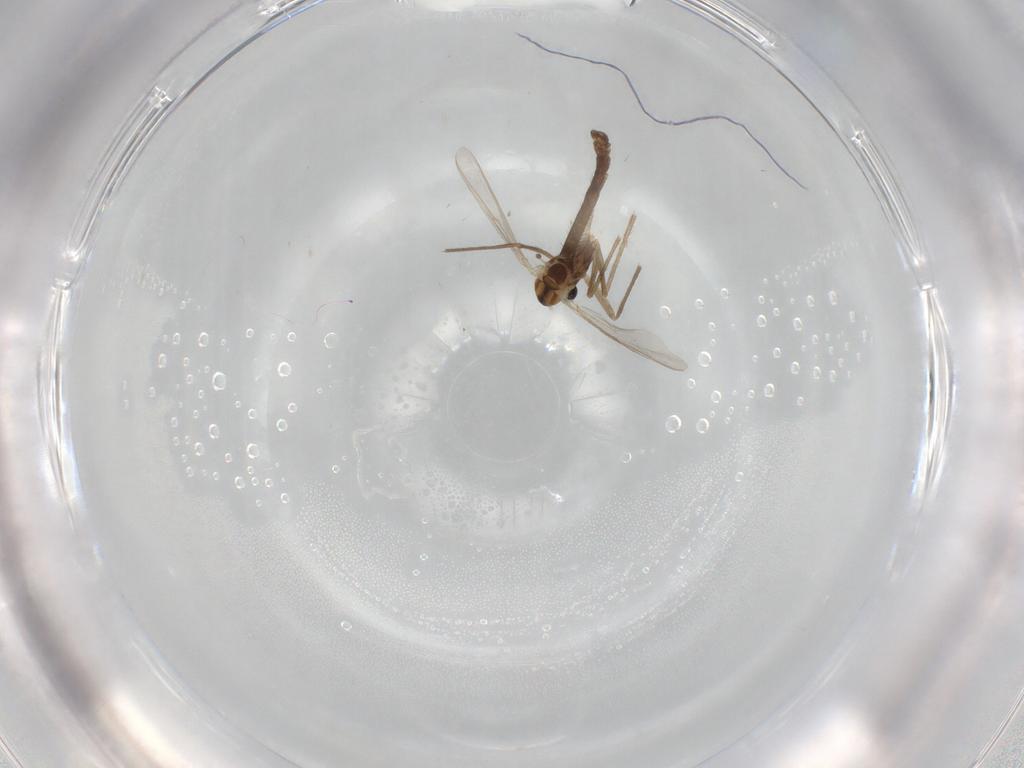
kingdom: Animalia
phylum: Arthropoda
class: Insecta
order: Diptera
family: Chironomidae
